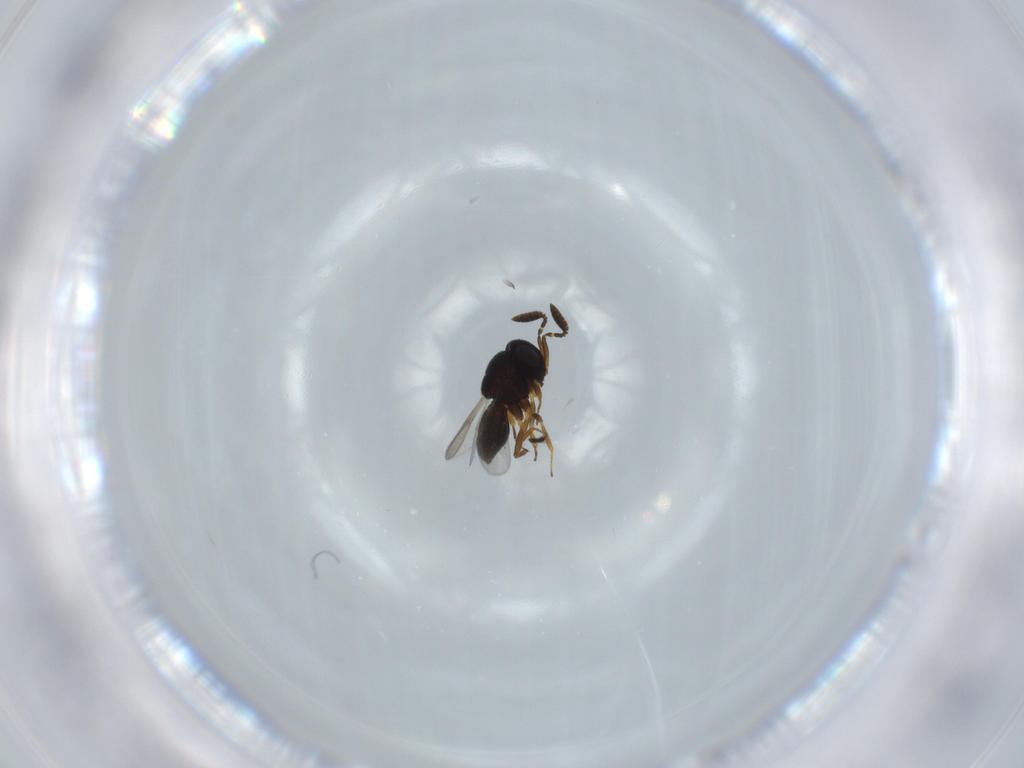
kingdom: Animalia
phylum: Arthropoda
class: Insecta
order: Hymenoptera
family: Scelionidae
